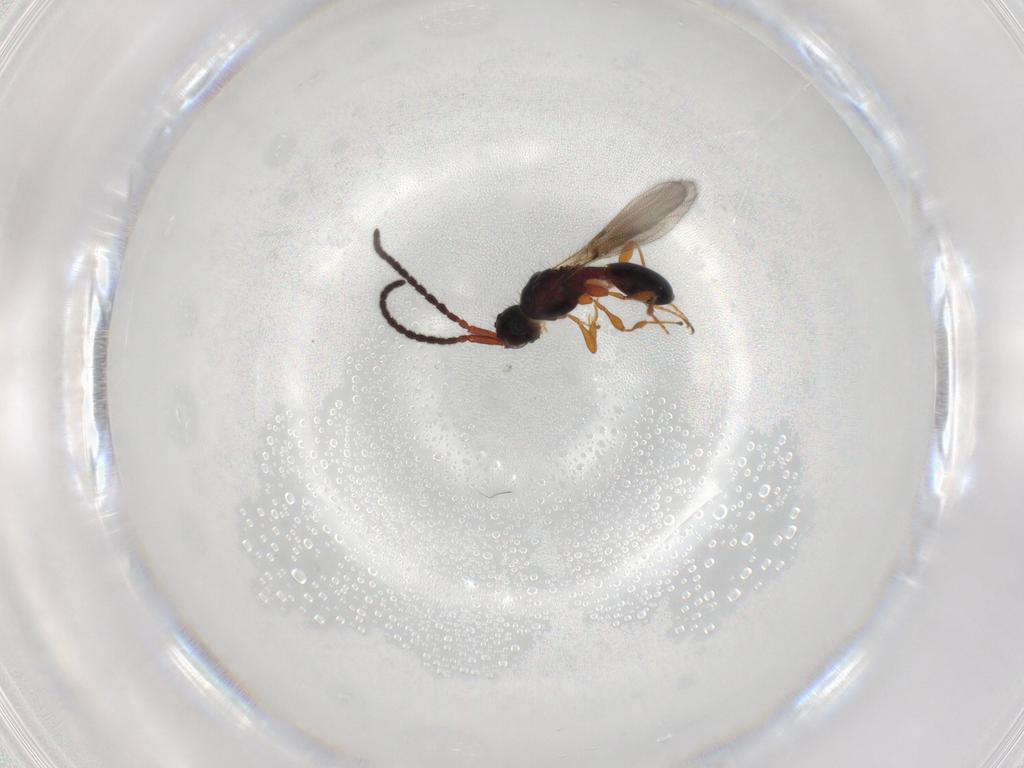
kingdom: Animalia
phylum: Arthropoda
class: Insecta
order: Hymenoptera
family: Diapriidae
